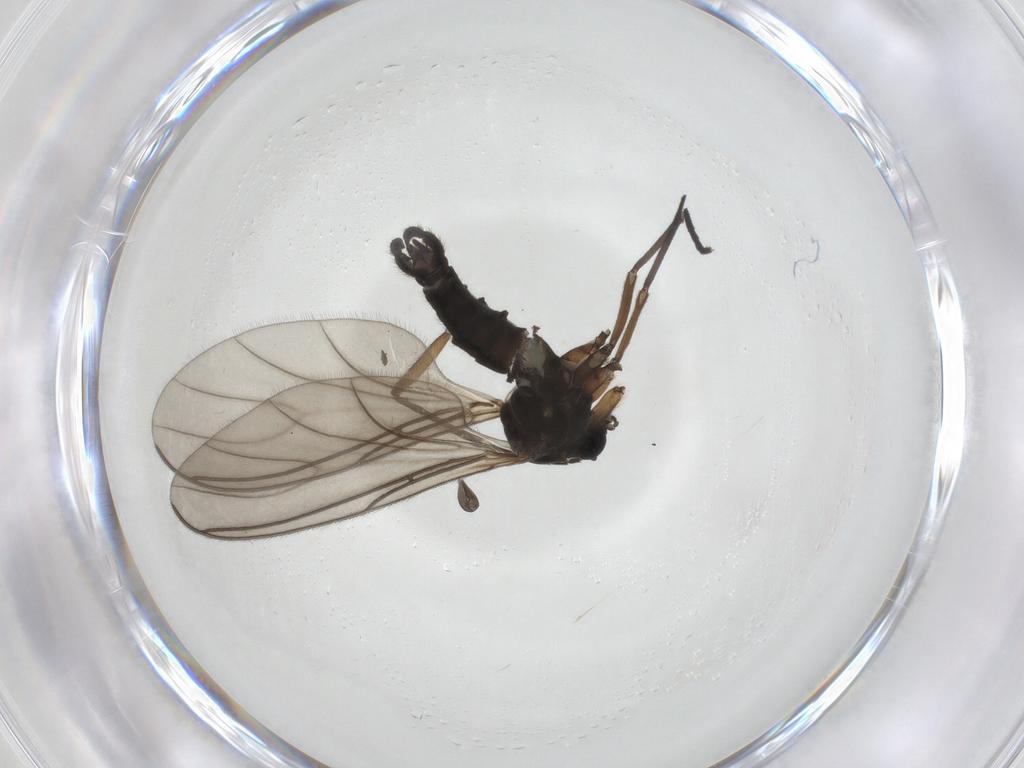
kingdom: Animalia
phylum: Arthropoda
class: Insecta
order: Diptera
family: Sciaridae
